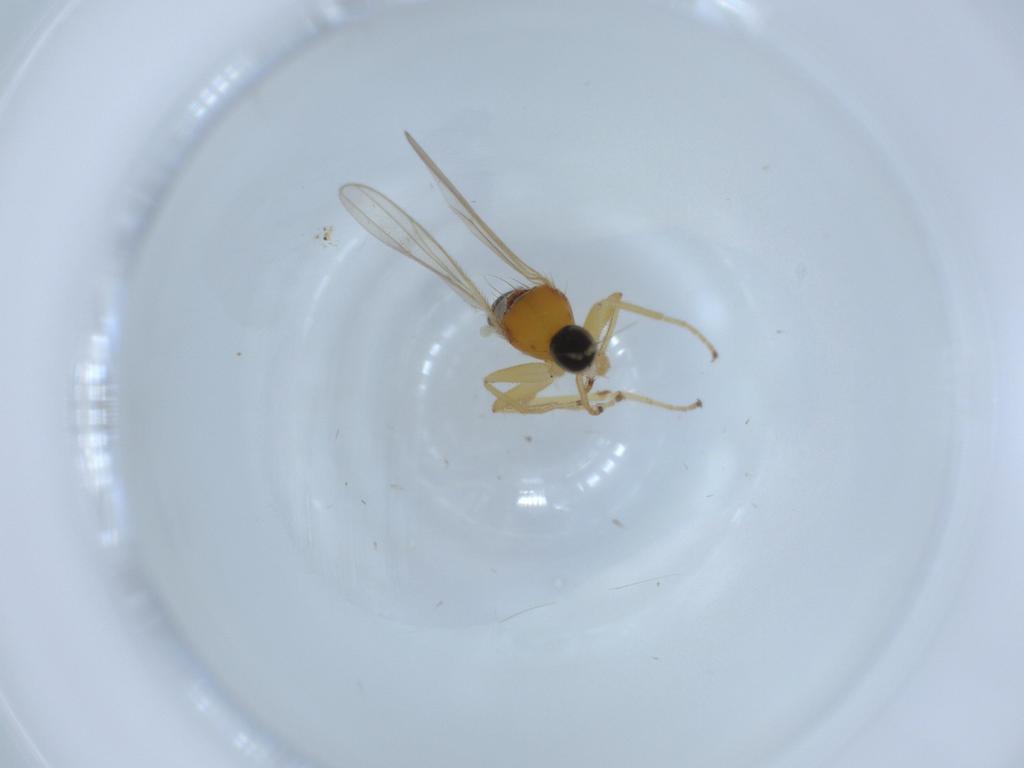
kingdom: Animalia
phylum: Arthropoda
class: Insecta
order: Diptera
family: Hybotidae
